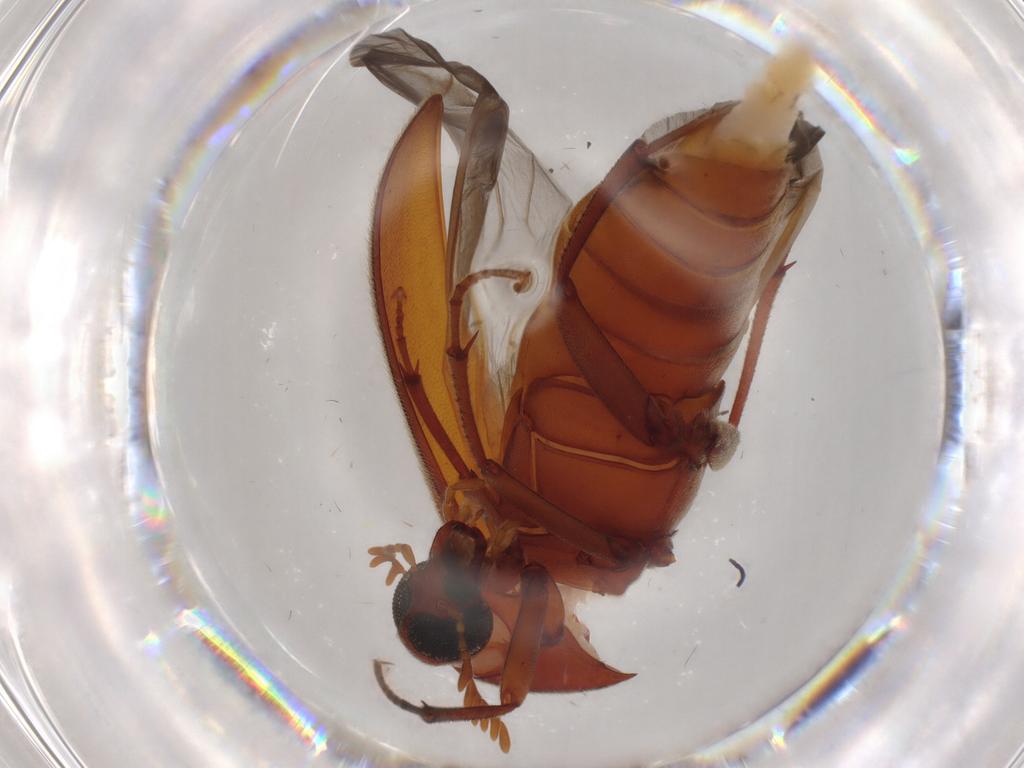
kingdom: Animalia
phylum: Arthropoda
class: Insecta
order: Coleoptera
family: Ripiphoridae
